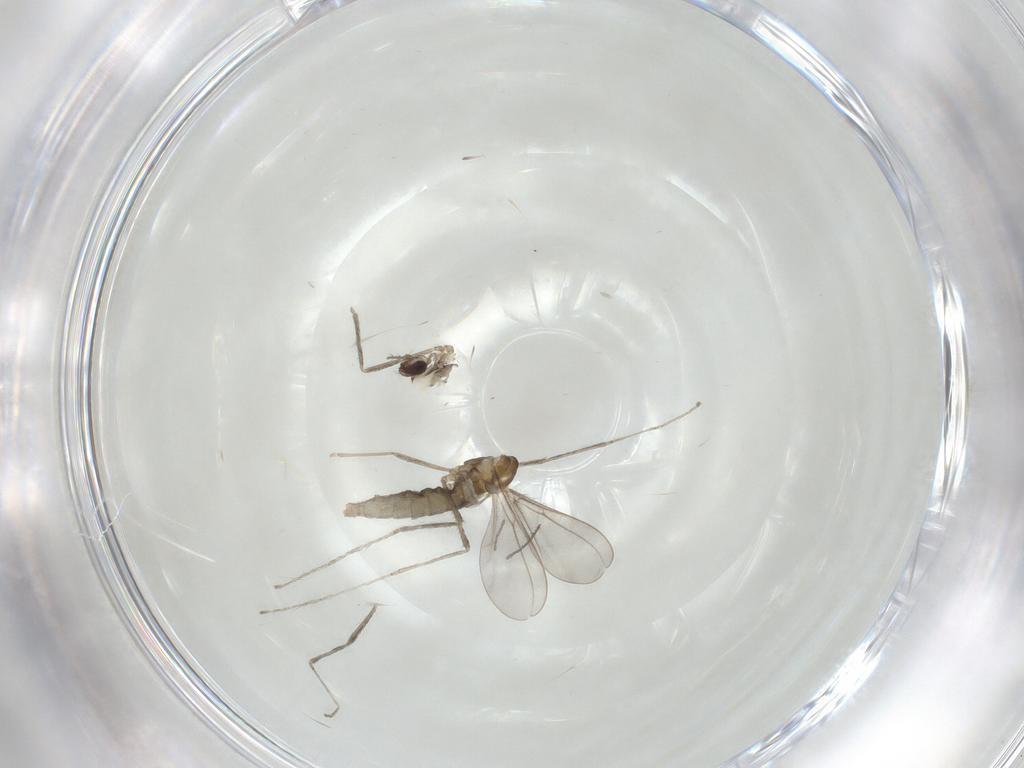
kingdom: Animalia
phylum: Arthropoda
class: Insecta
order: Diptera
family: Cecidomyiidae
